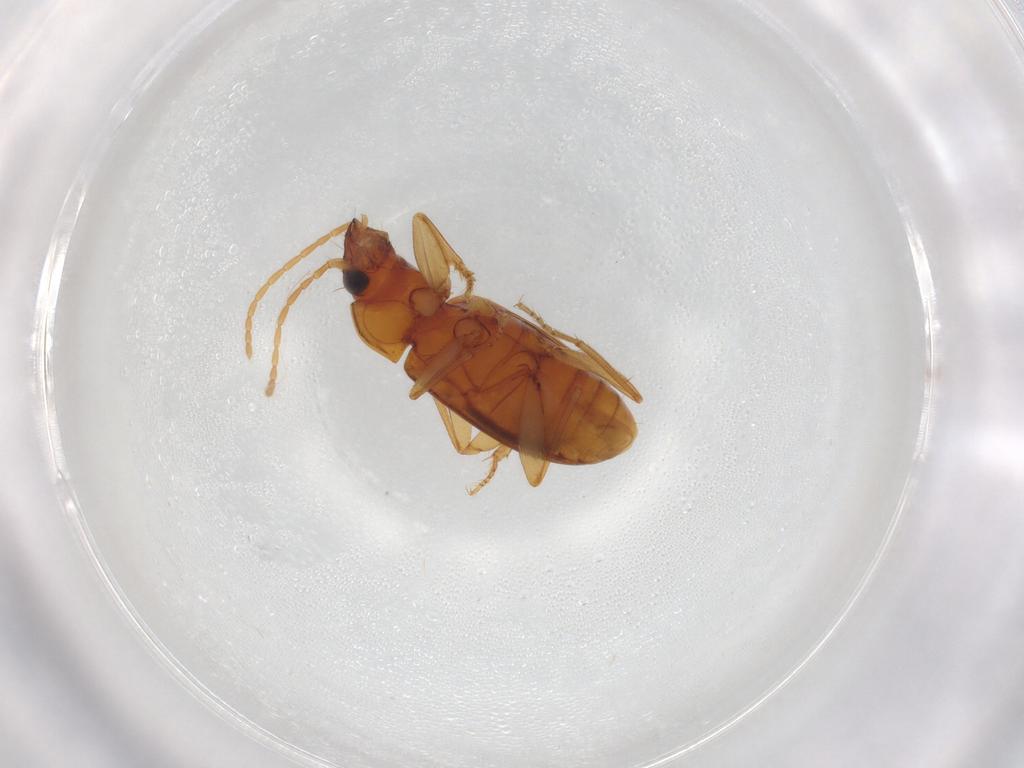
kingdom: Animalia
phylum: Arthropoda
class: Insecta
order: Coleoptera
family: Carabidae
